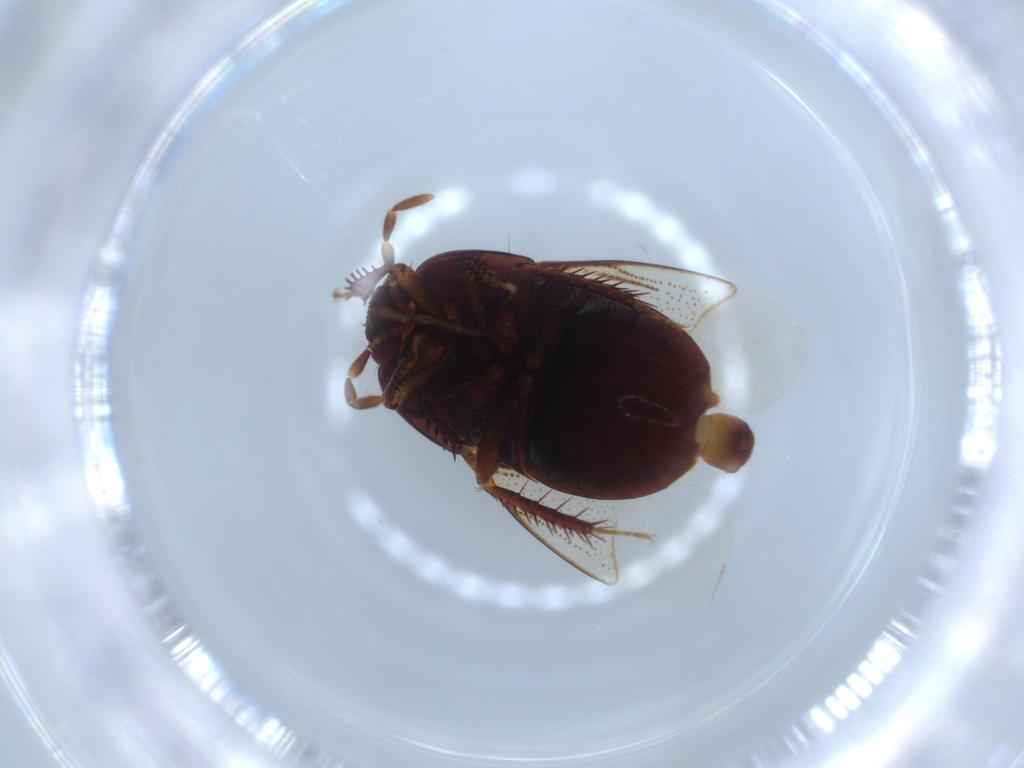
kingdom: Animalia
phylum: Arthropoda
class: Insecta
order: Hemiptera
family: Cydnidae
